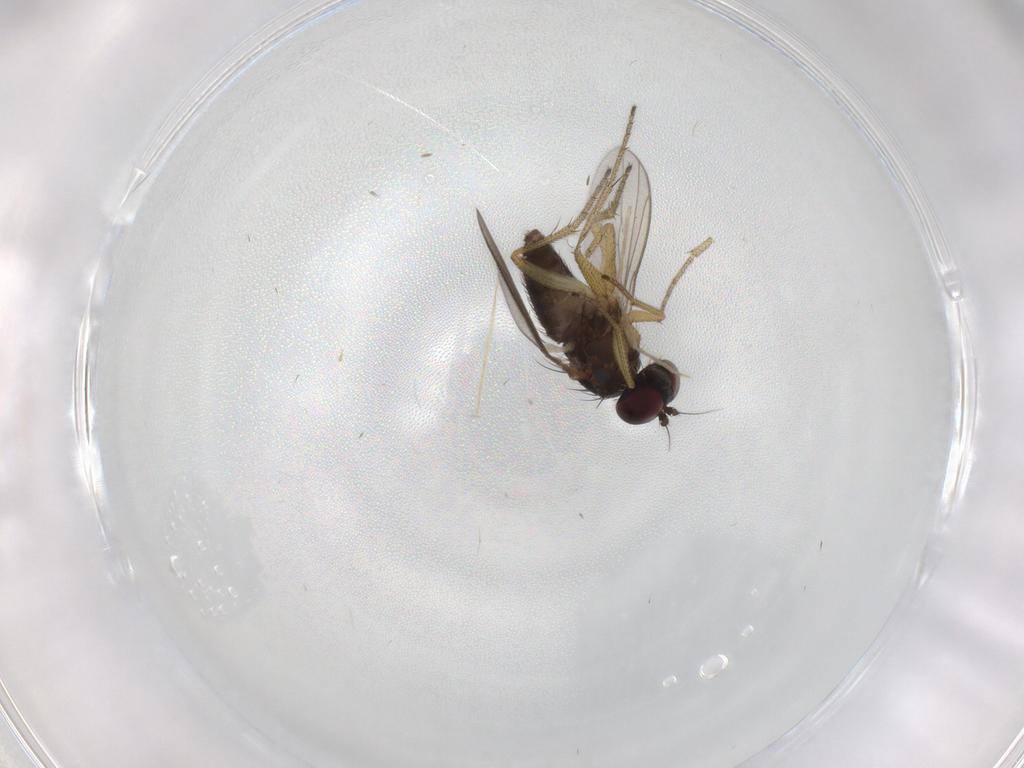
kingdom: Animalia
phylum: Arthropoda
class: Insecta
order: Diptera
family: Dolichopodidae
